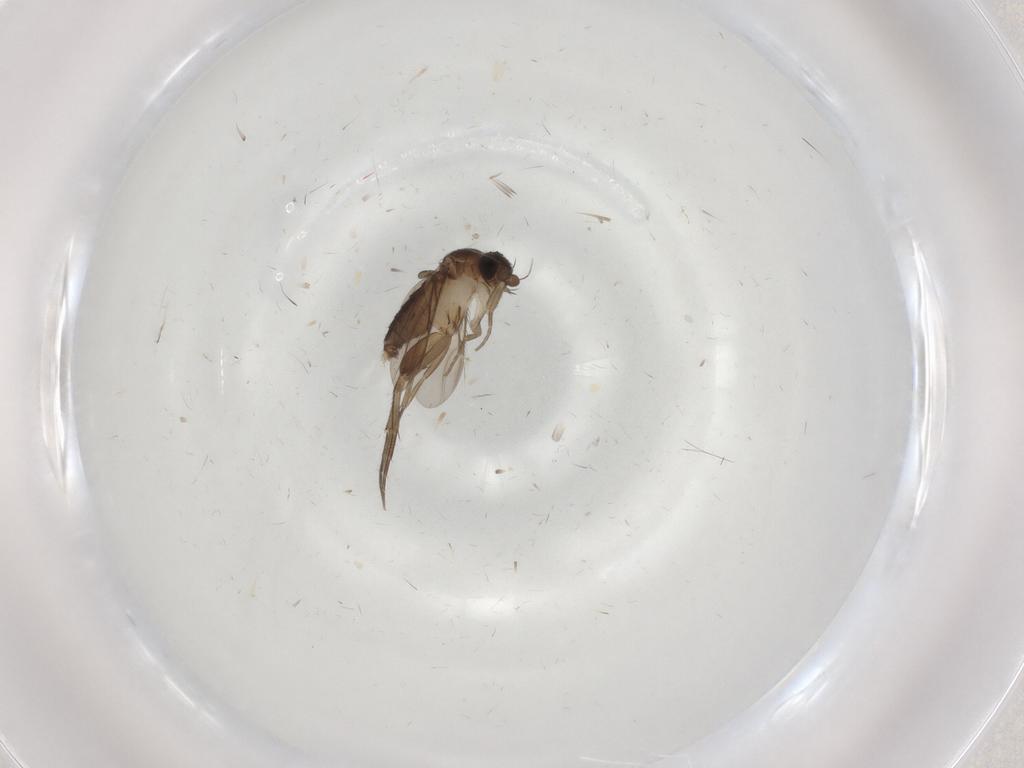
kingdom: Animalia
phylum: Arthropoda
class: Insecta
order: Diptera
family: Phoridae
